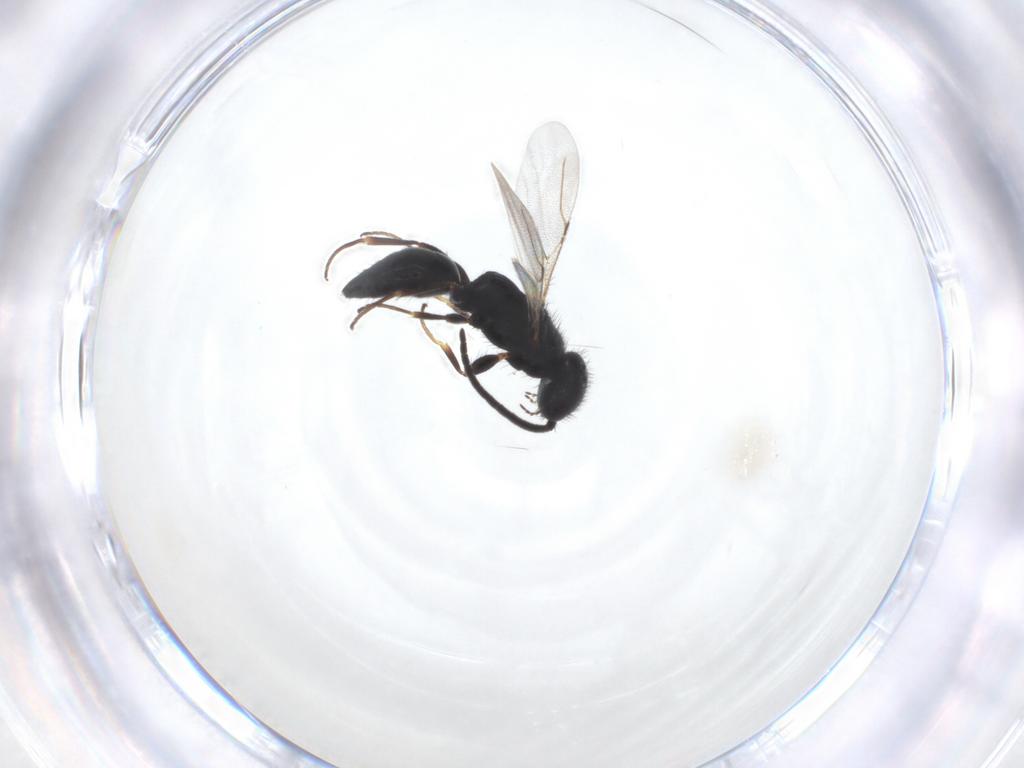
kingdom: Animalia
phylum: Arthropoda
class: Insecta
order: Hymenoptera
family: Bethylidae
